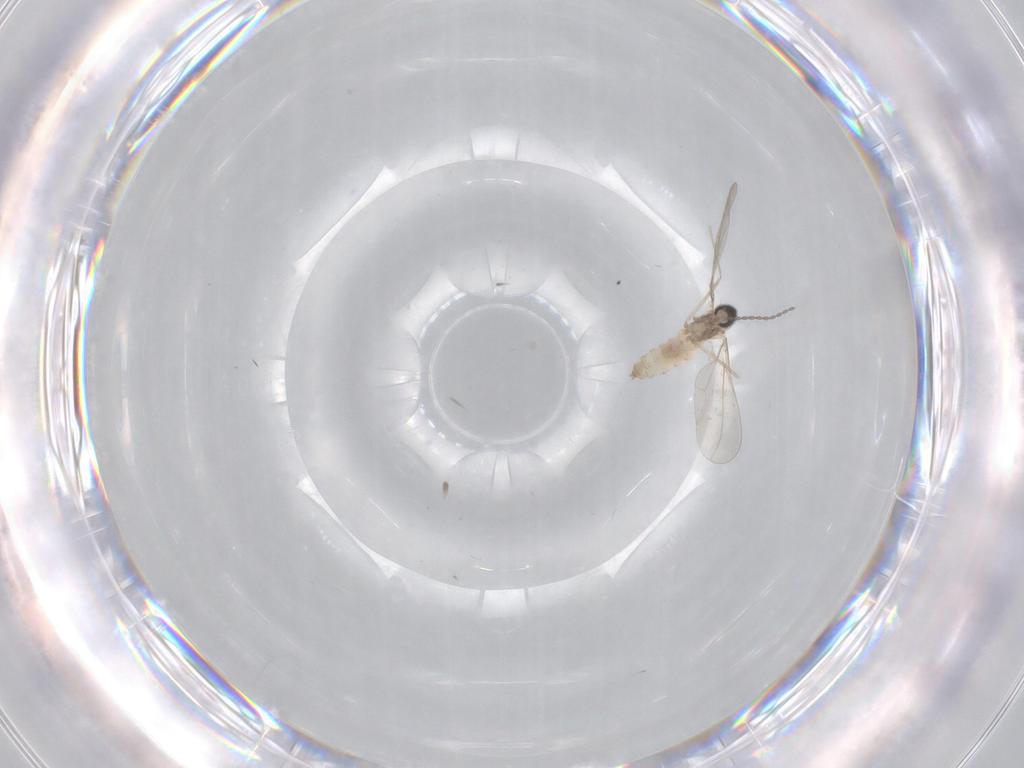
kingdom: Animalia
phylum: Arthropoda
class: Insecta
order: Diptera
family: Cecidomyiidae
